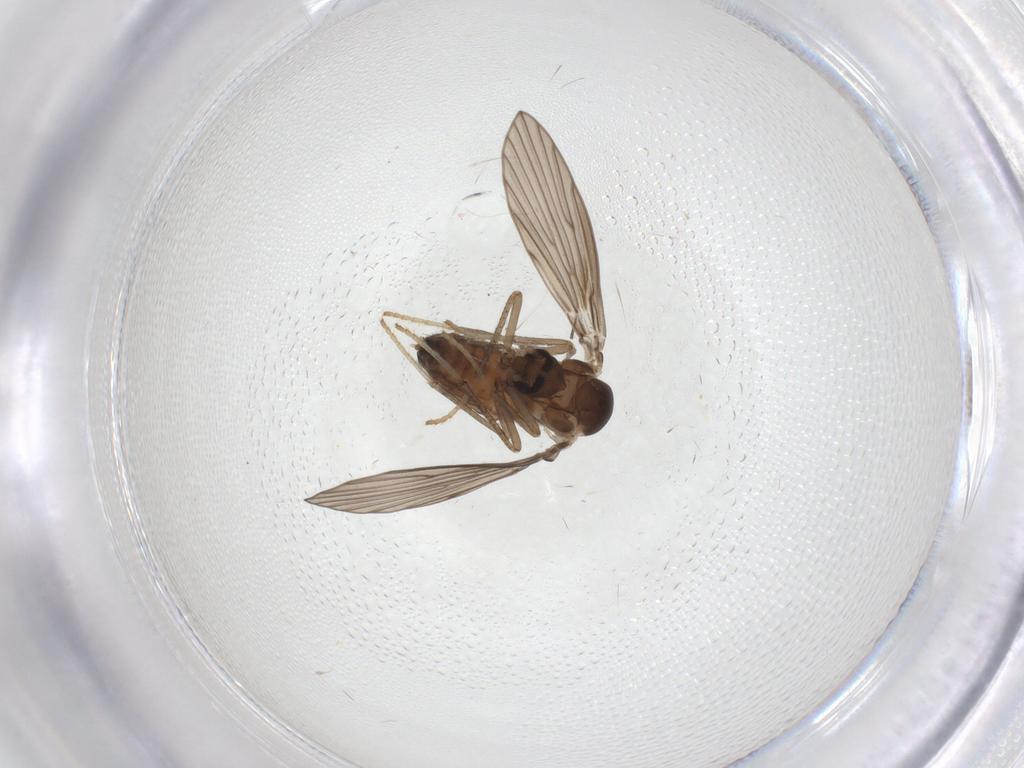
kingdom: Animalia
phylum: Arthropoda
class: Insecta
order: Diptera
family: Psychodidae
